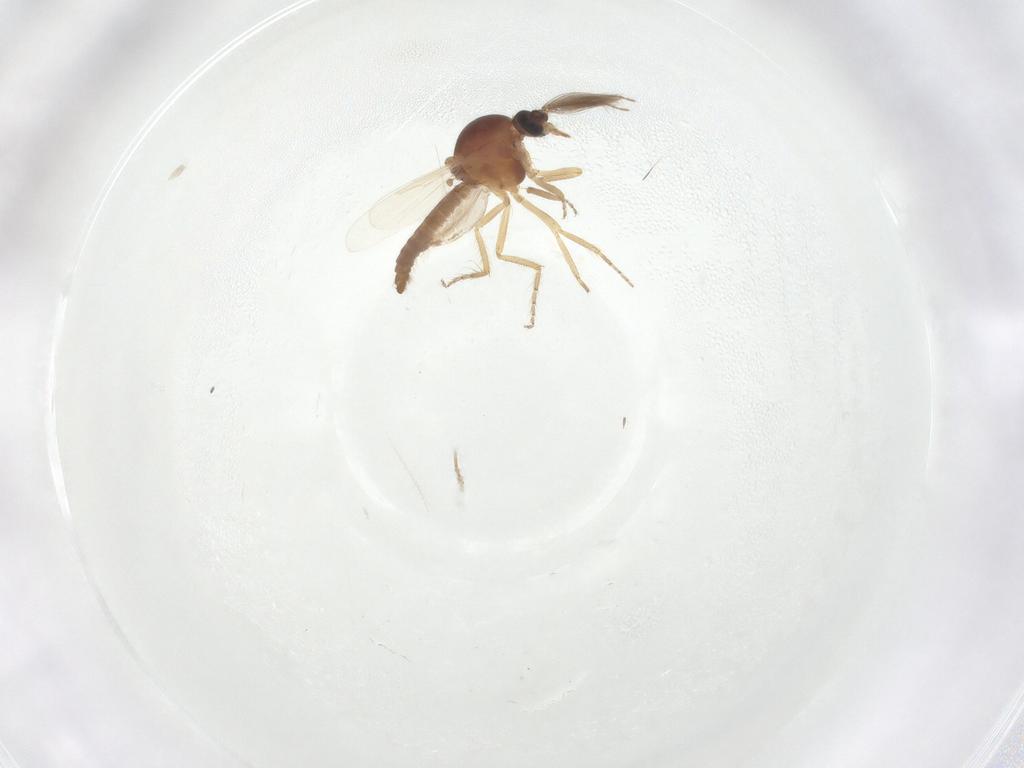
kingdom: Animalia
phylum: Arthropoda
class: Insecta
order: Diptera
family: Ceratopogonidae
